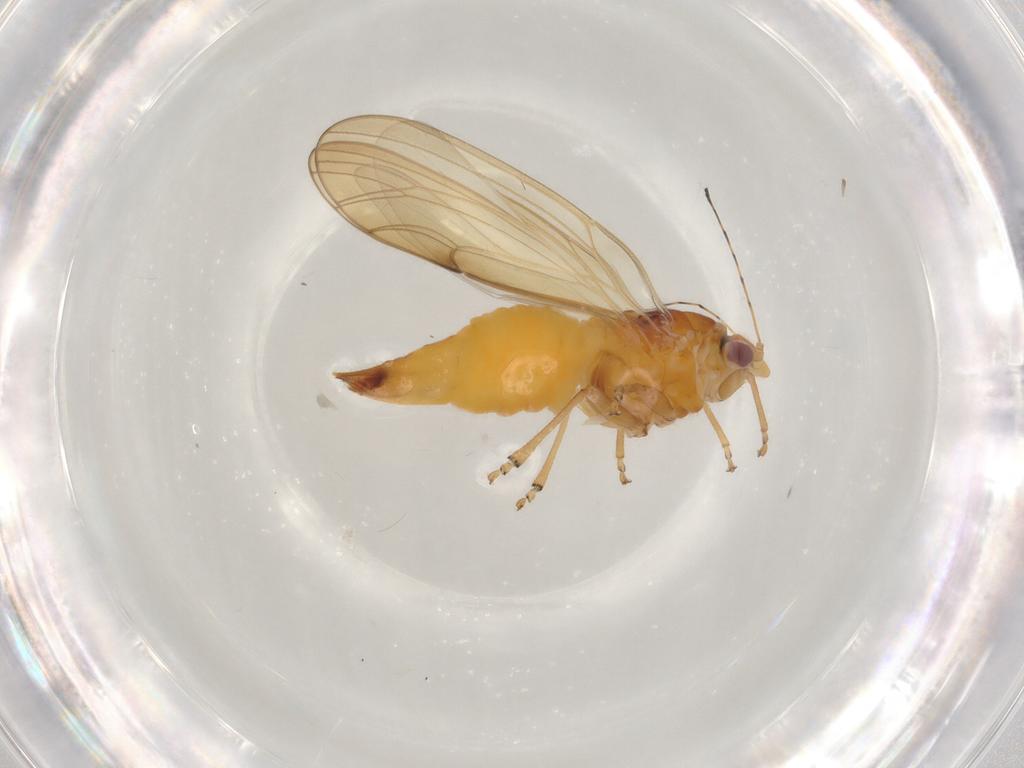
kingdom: Animalia
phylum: Arthropoda
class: Insecta
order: Hemiptera
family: Psylloidea_incertae_sedis
